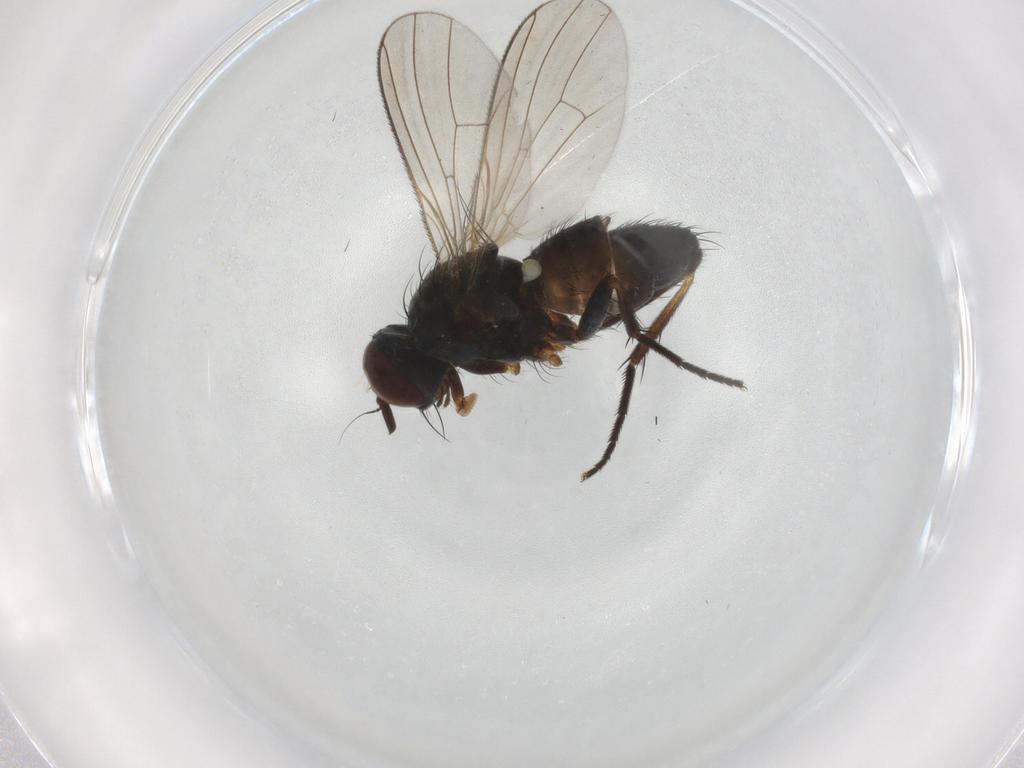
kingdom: Animalia
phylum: Arthropoda
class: Insecta
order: Diptera
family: Muscidae
